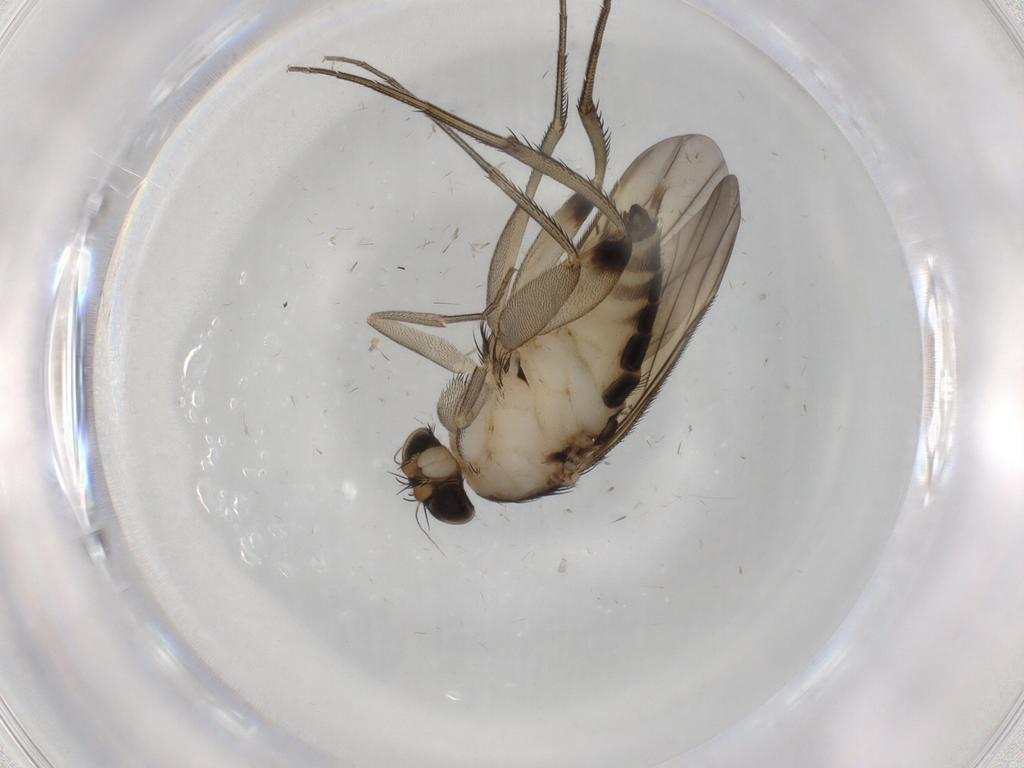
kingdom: Animalia
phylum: Arthropoda
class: Insecta
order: Diptera
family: Phoridae
